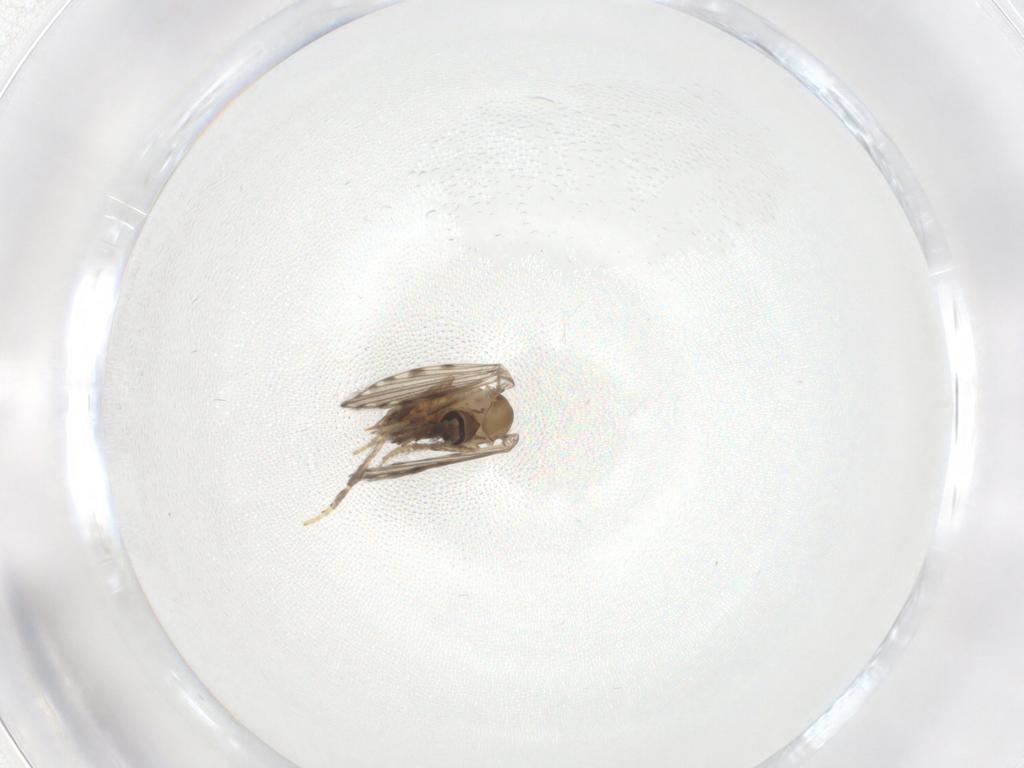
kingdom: Animalia
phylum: Arthropoda
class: Insecta
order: Diptera
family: Psychodidae
